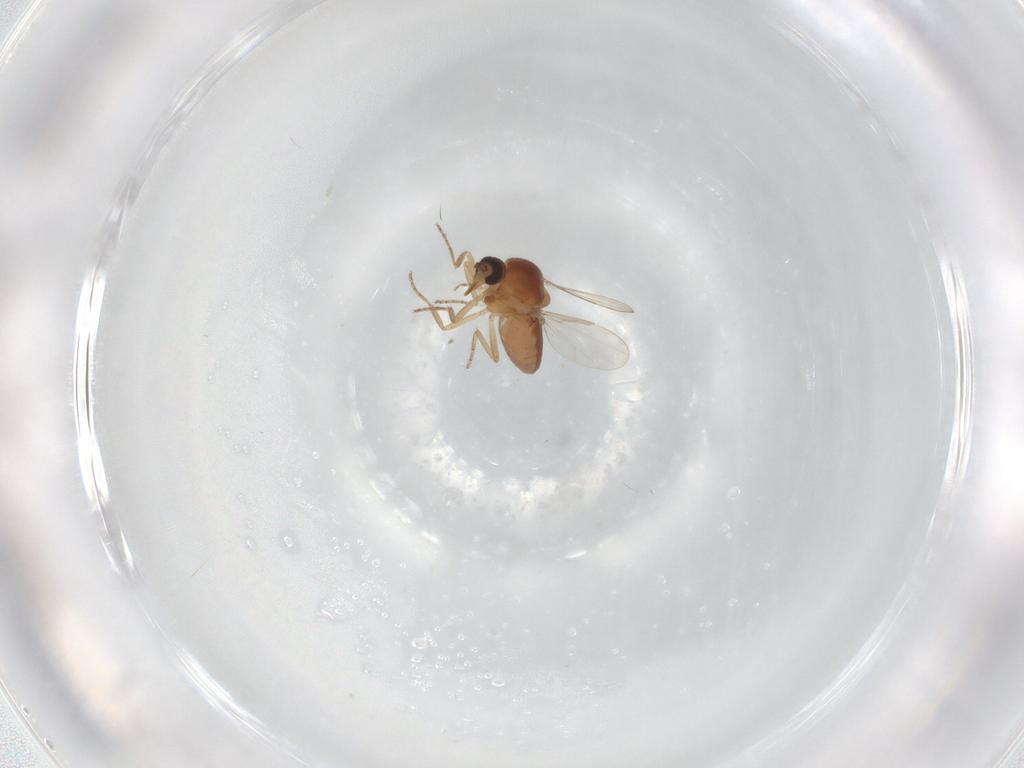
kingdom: Animalia
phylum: Arthropoda
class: Insecta
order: Diptera
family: Ceratopogonidae
